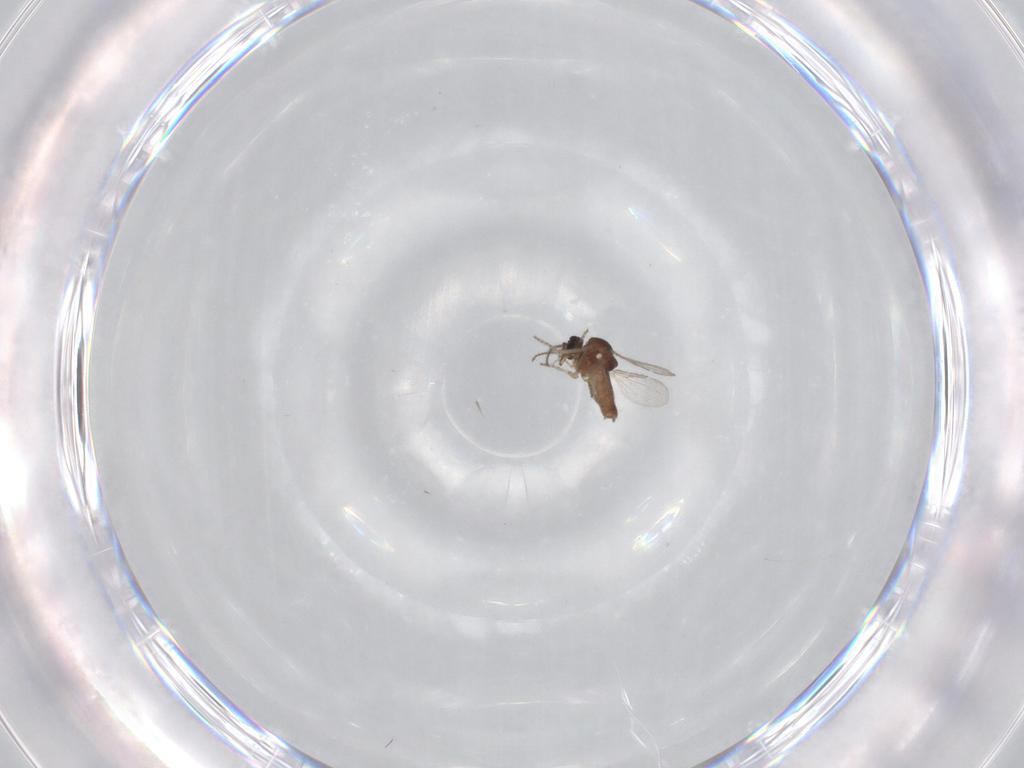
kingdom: Animalia
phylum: Arthropoda
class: Insecta
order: Diptera
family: Ceratopogonidae
